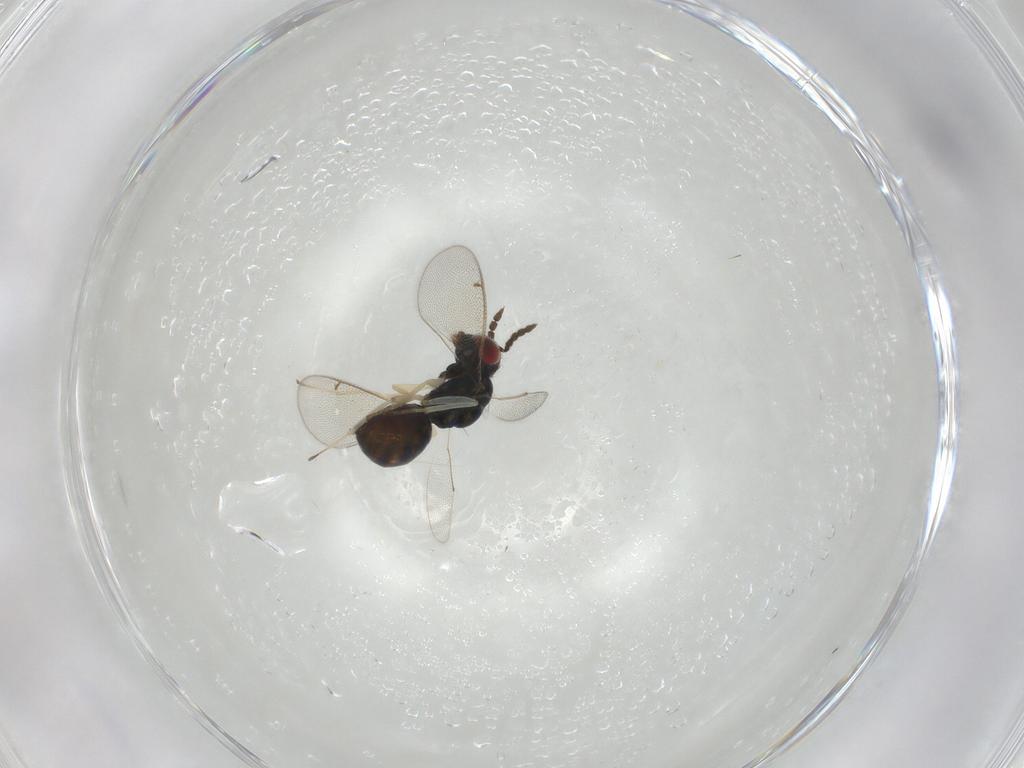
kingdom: Animalia
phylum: Arthropoda
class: Insecta
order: Hymenoptera
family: Eulophidae
